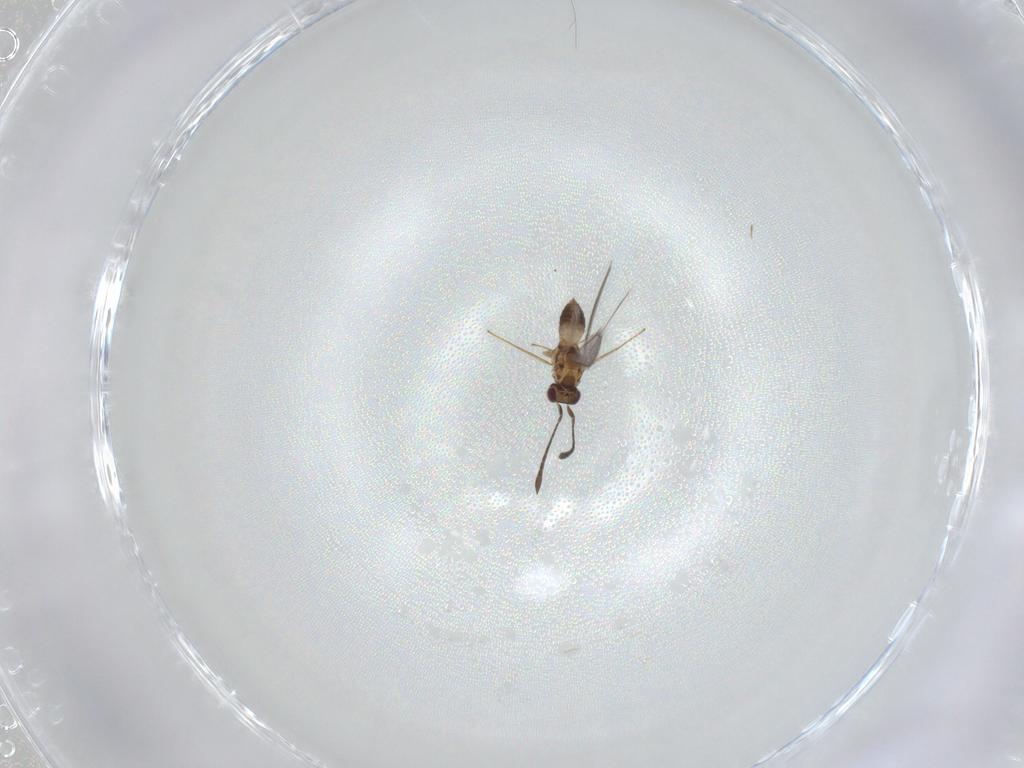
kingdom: Animalia
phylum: Arthropoda
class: Insecta
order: Hymenoptera
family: Mymaridae
